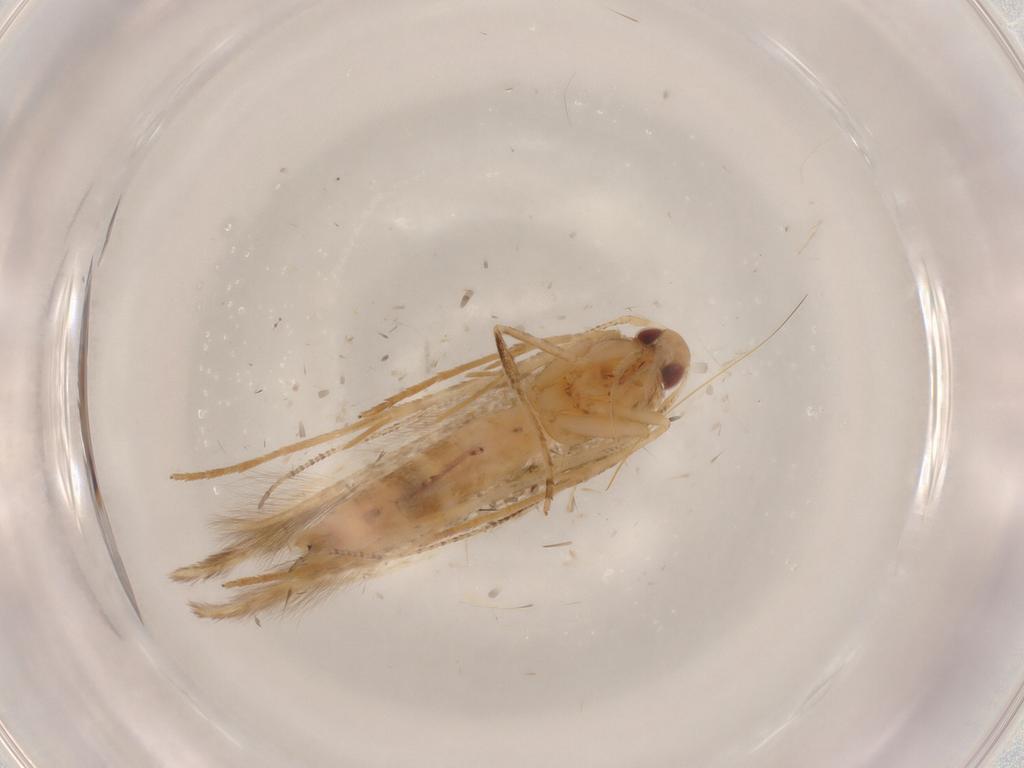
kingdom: Animalia
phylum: Arthropoda
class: Insecta
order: Lepidoptera
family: Cosmopterigidae
